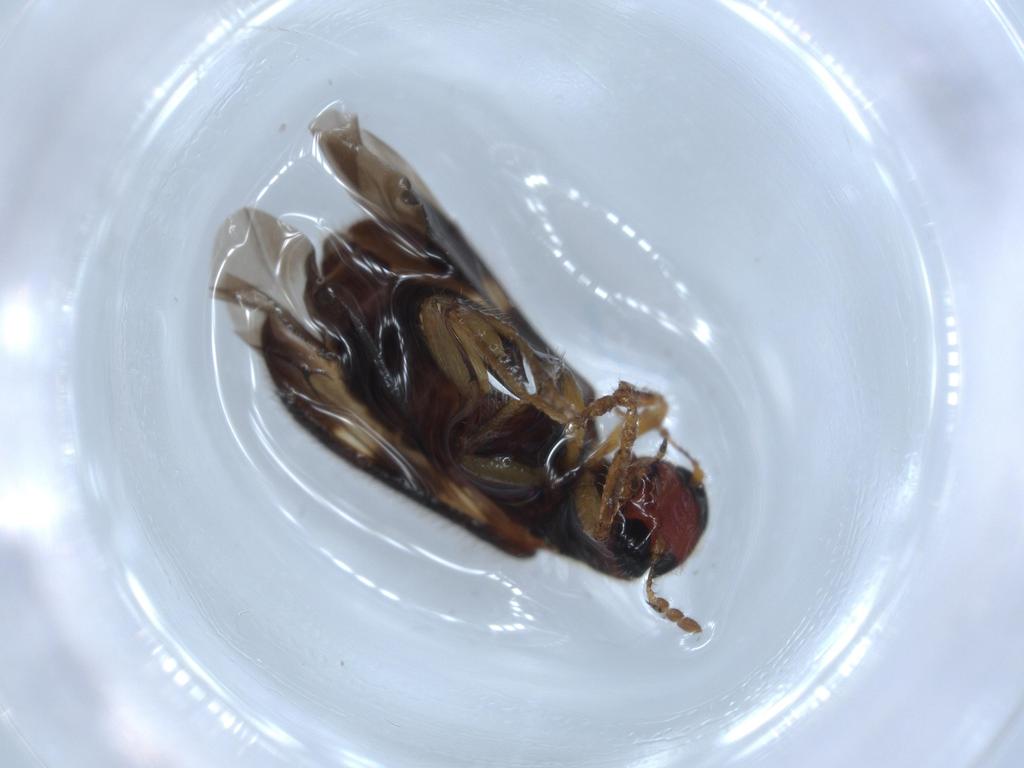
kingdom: Animalia
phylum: Arthropoda
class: Insecta
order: Coleoptera
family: Cleridae
